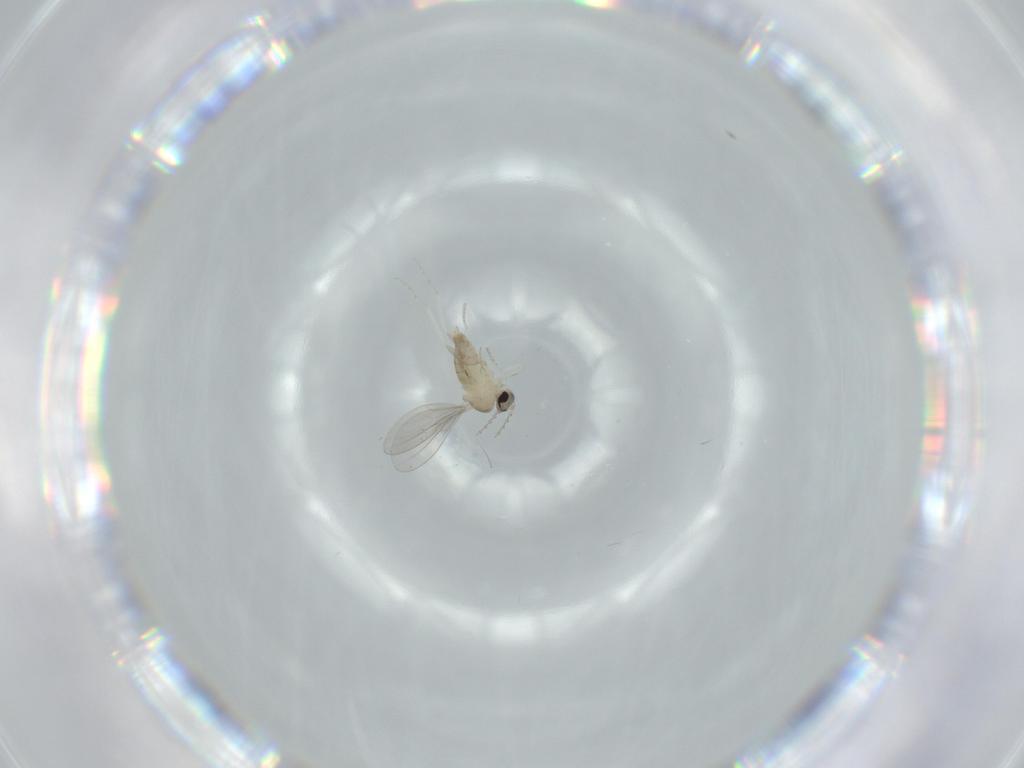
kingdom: Animalia
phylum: Arthropoda
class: Insecta
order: Diptera
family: Cecidomyiidae
